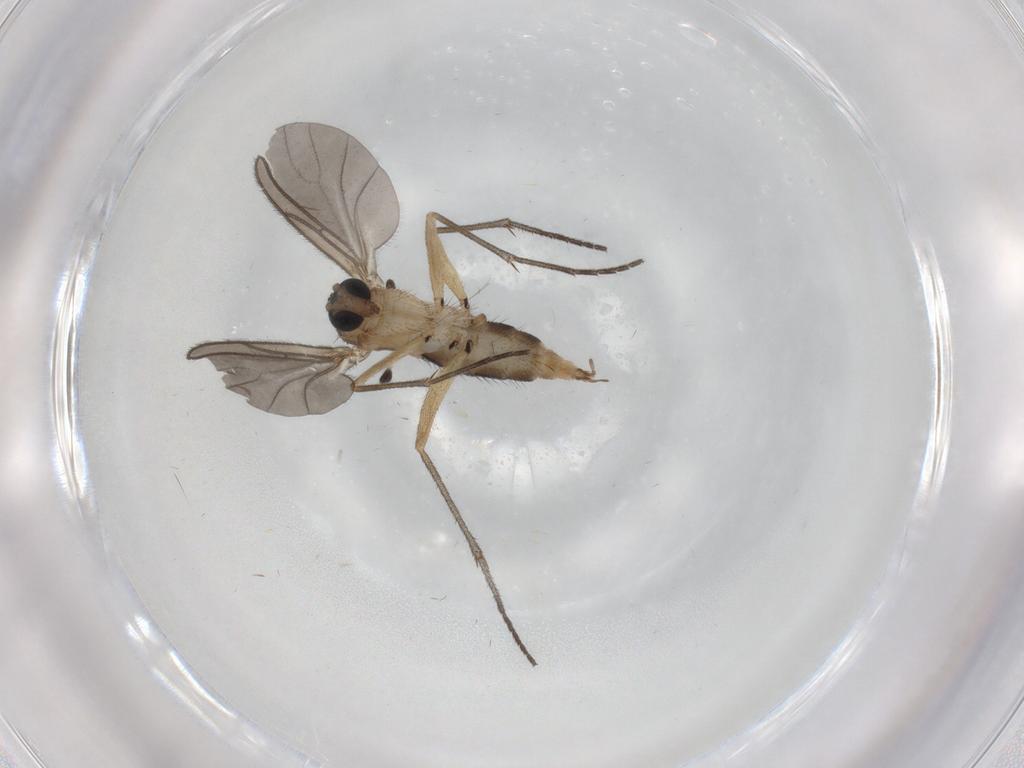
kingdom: Animalia
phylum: Arthropoda
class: Insecta
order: Diptera
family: Sciaridae
